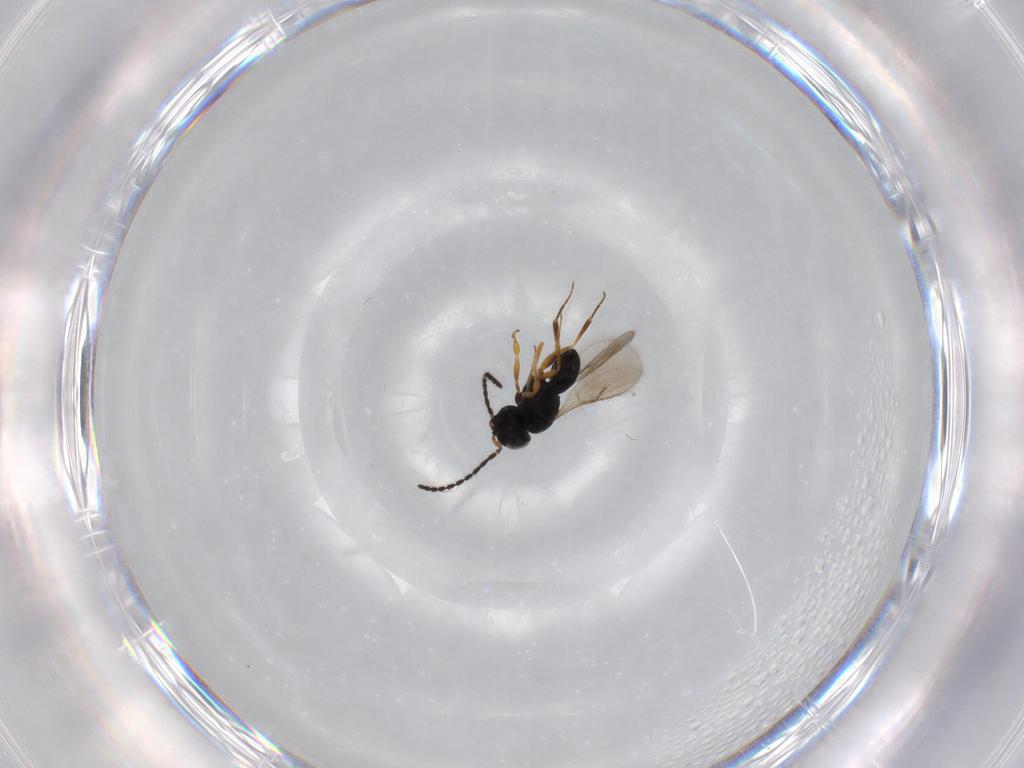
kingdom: Animalia
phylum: Arthropoda
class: Insecta
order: Hymenoptera
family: Scelionidae
